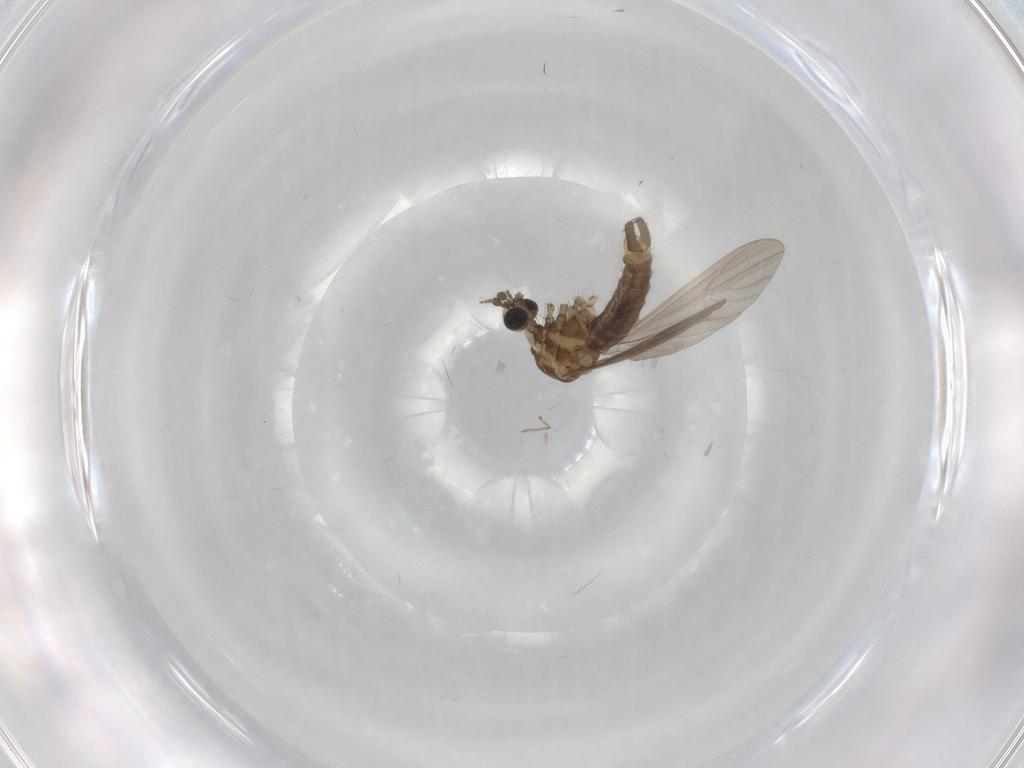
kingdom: Animalia
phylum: Arthropoda
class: Insecta
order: Diptera
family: Limoniidae
